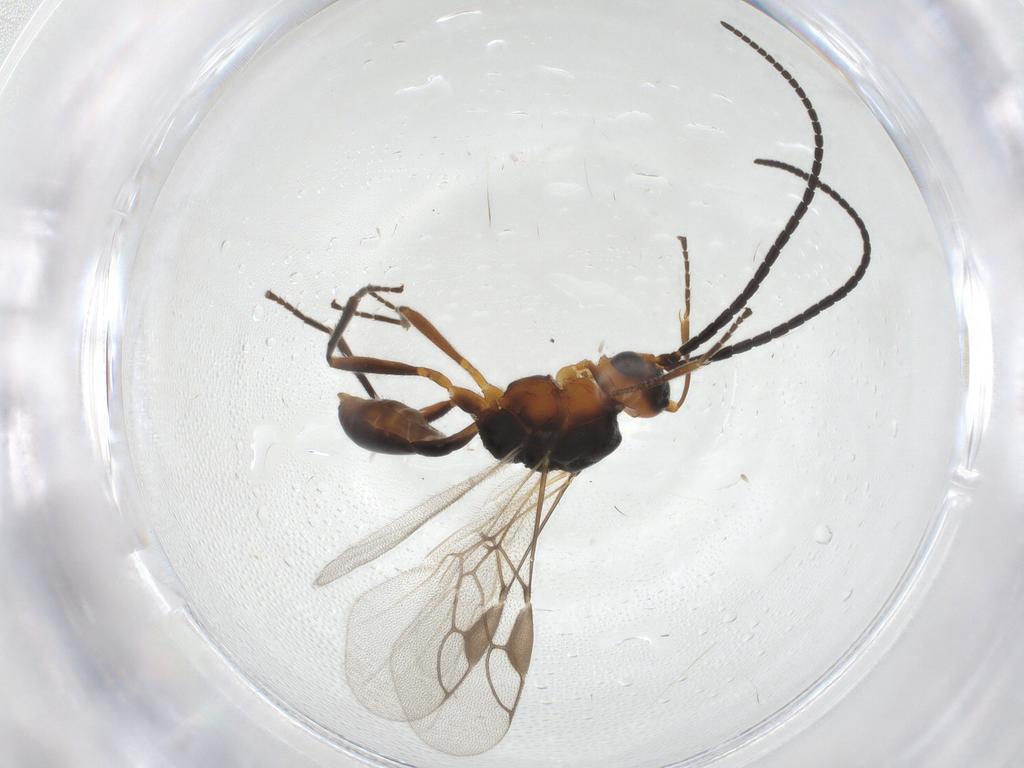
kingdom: Animalia
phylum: Arthropoda
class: Insecta
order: Hymenoptera
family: Braconidae
